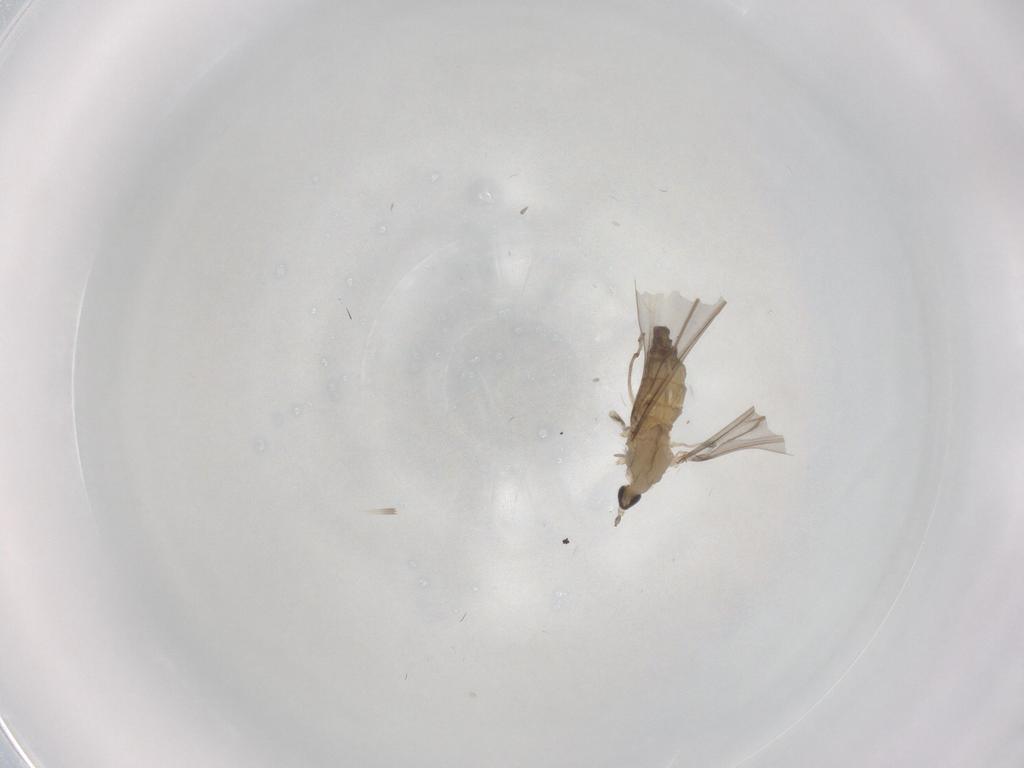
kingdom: Animalia
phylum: Arthropoda
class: Insecta
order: Diptera
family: Cecidomyiidae
